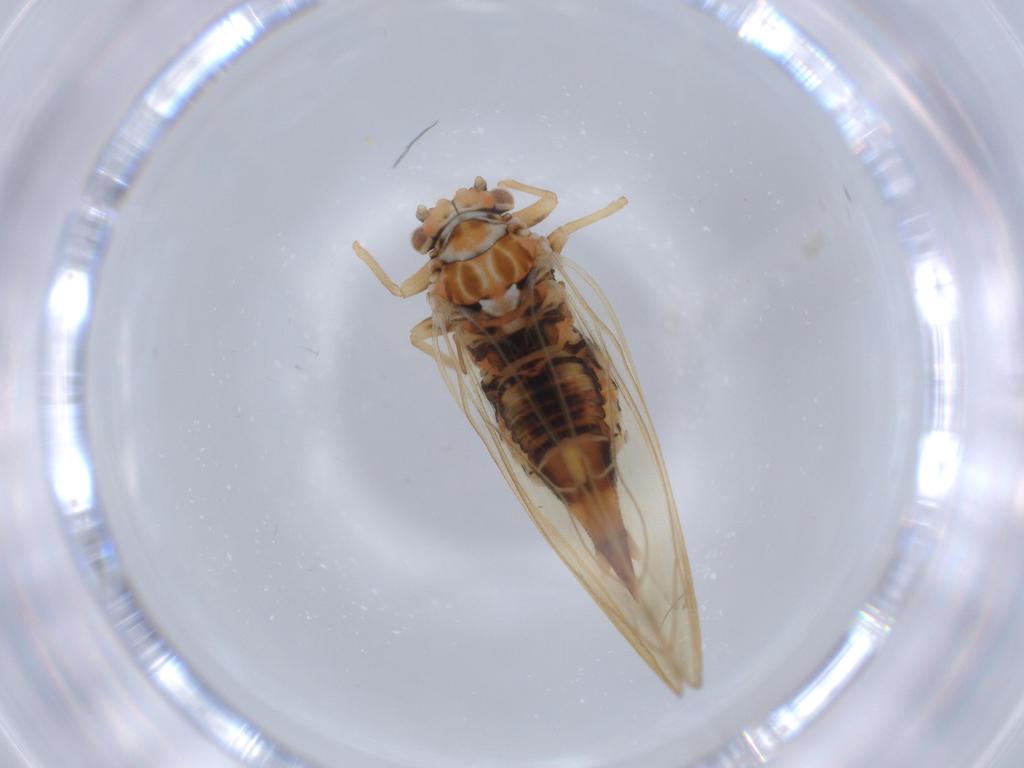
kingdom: Animalia
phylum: Arthropoda
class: Insecta
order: Hemiptera
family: Psyllidae
